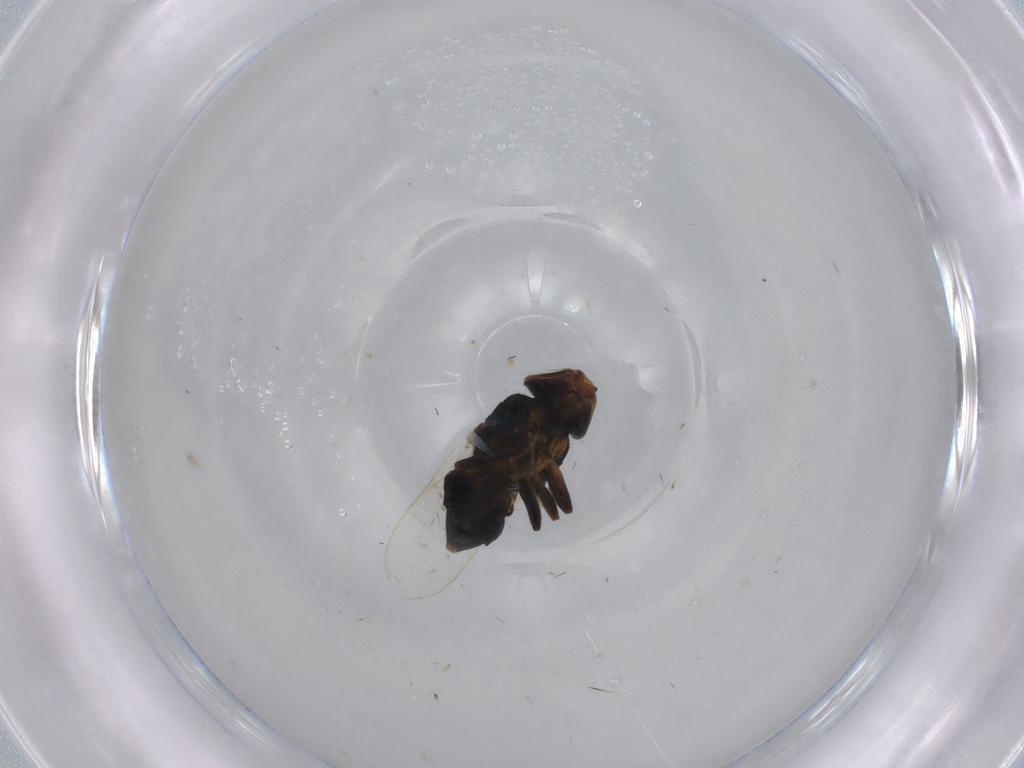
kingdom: Animalia
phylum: Arthropoda
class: Insecta
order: Diptera
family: Chloropidae
